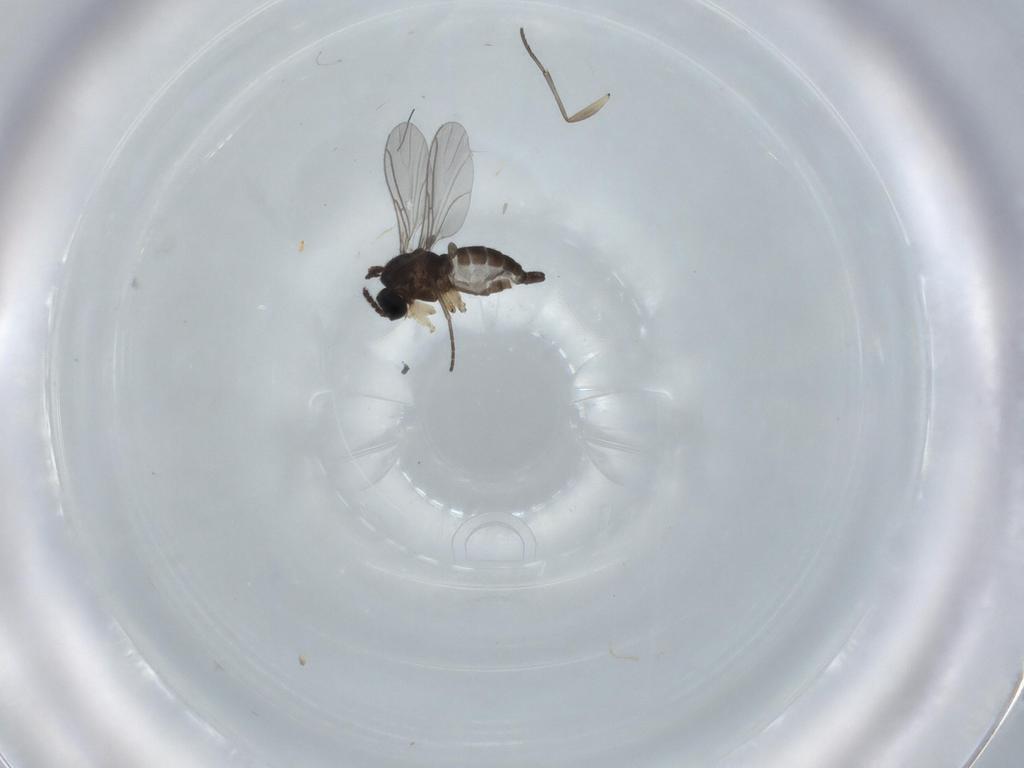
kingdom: Animalia
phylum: Arthropoda
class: Insecta
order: Diptera
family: Sciaridae
